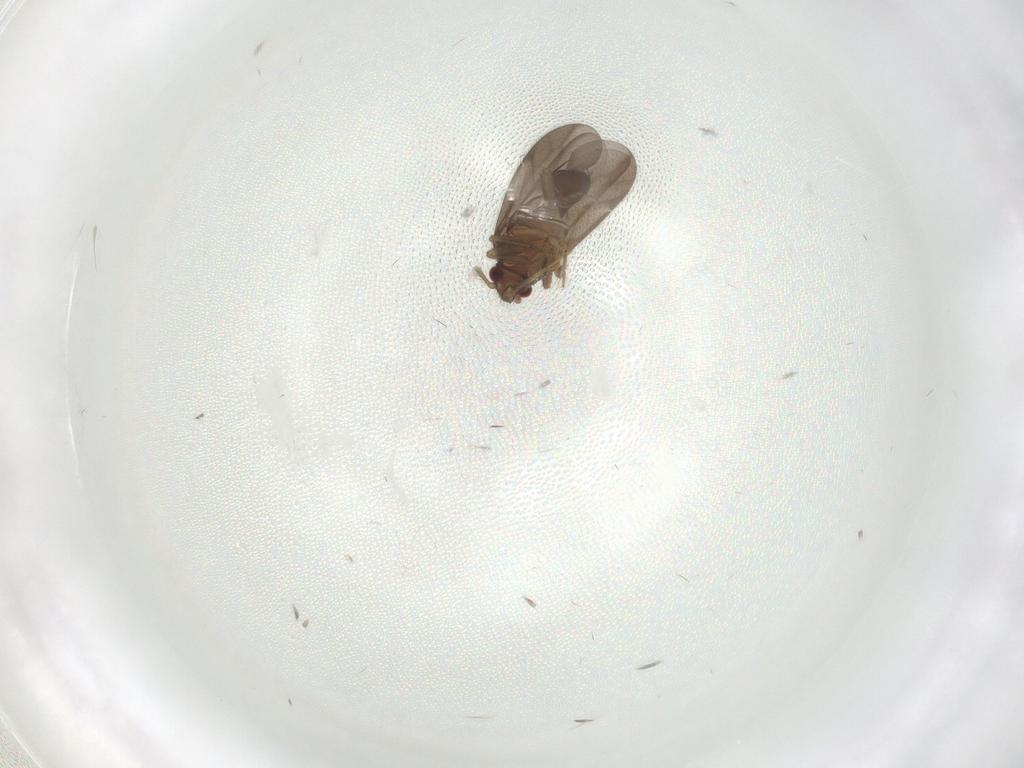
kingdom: Animalia
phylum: Arthropoda
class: Insecta
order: Hemiptera
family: Ceratocombidae
